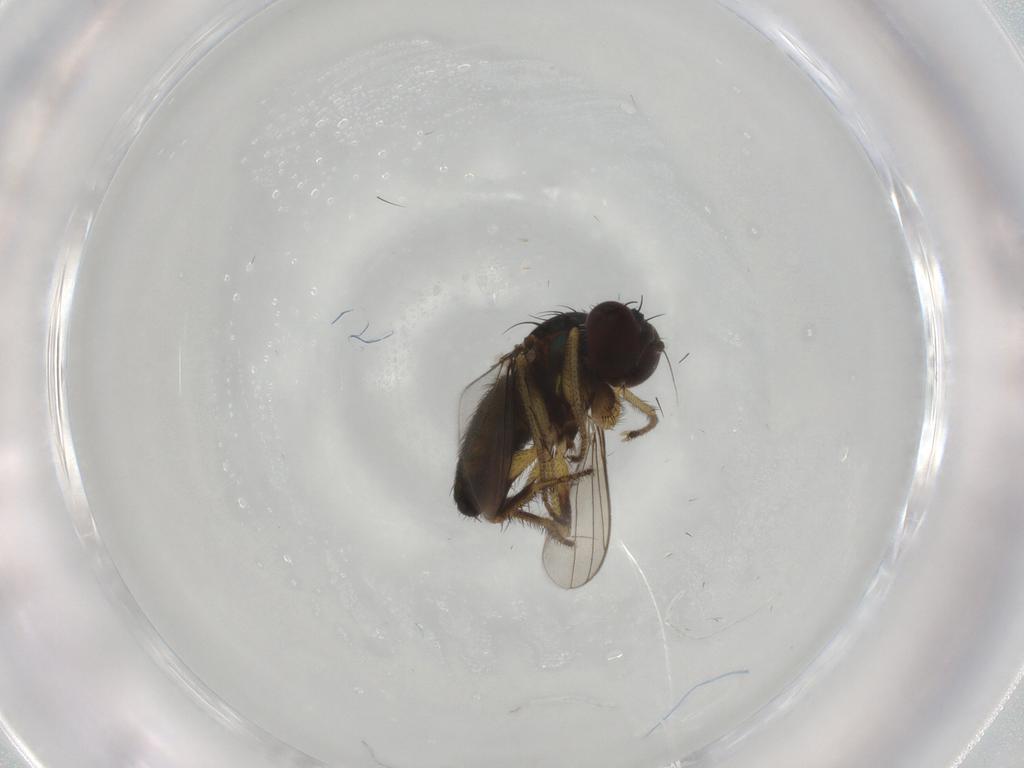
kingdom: Animalia
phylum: Arthropoda
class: Insecta
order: Diptera
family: Dolichopodidae
